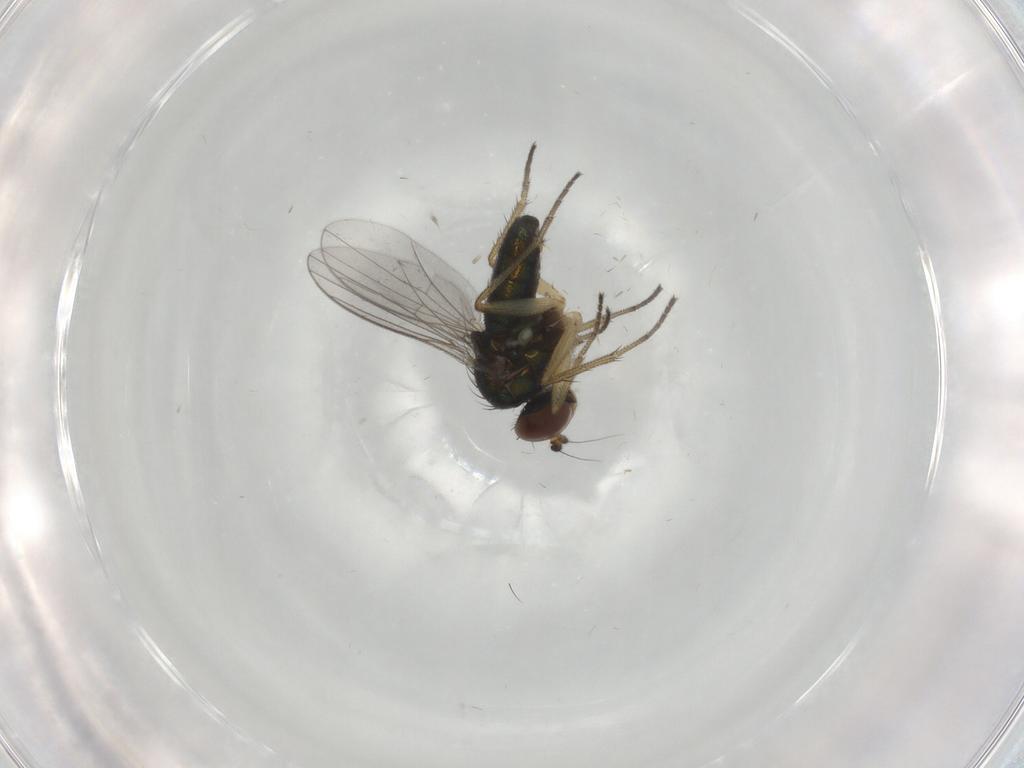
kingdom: Animalia
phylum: Arthropoda
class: Insecta
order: Diptera
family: Dolichopodidae
